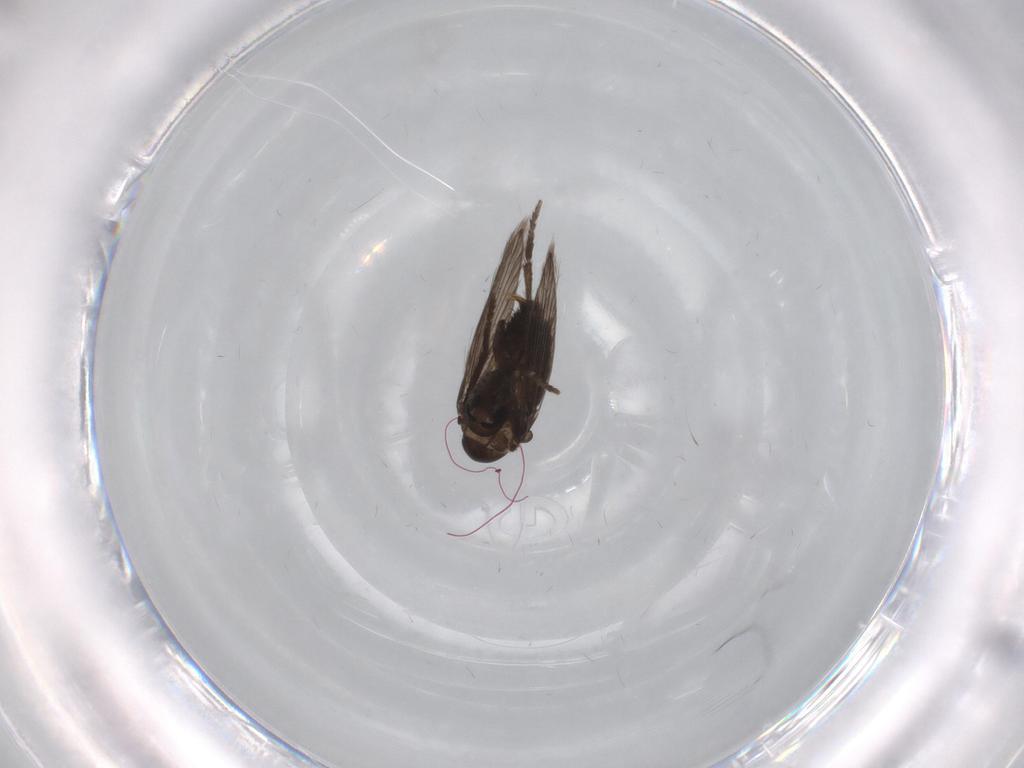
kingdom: Animalia
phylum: Arthropoda
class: Insecta
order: Diptera
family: Psychodidae
